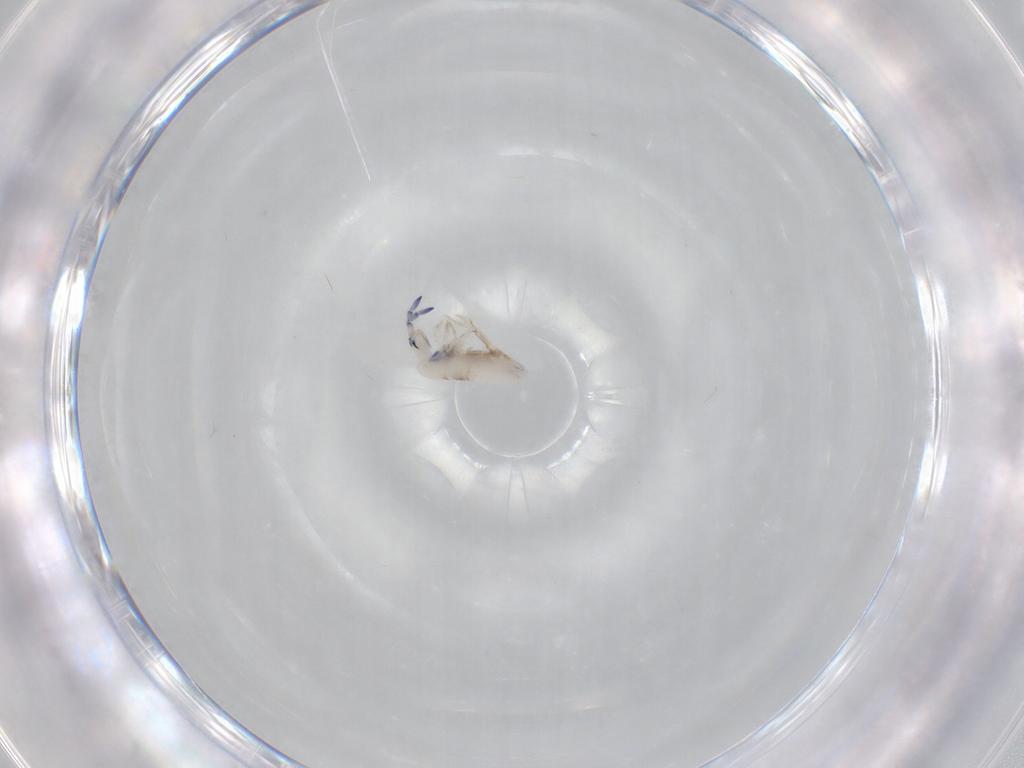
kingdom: Animalia
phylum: Arthropoda
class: Collembola
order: Entomobryomorpha
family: Entomobryidae
